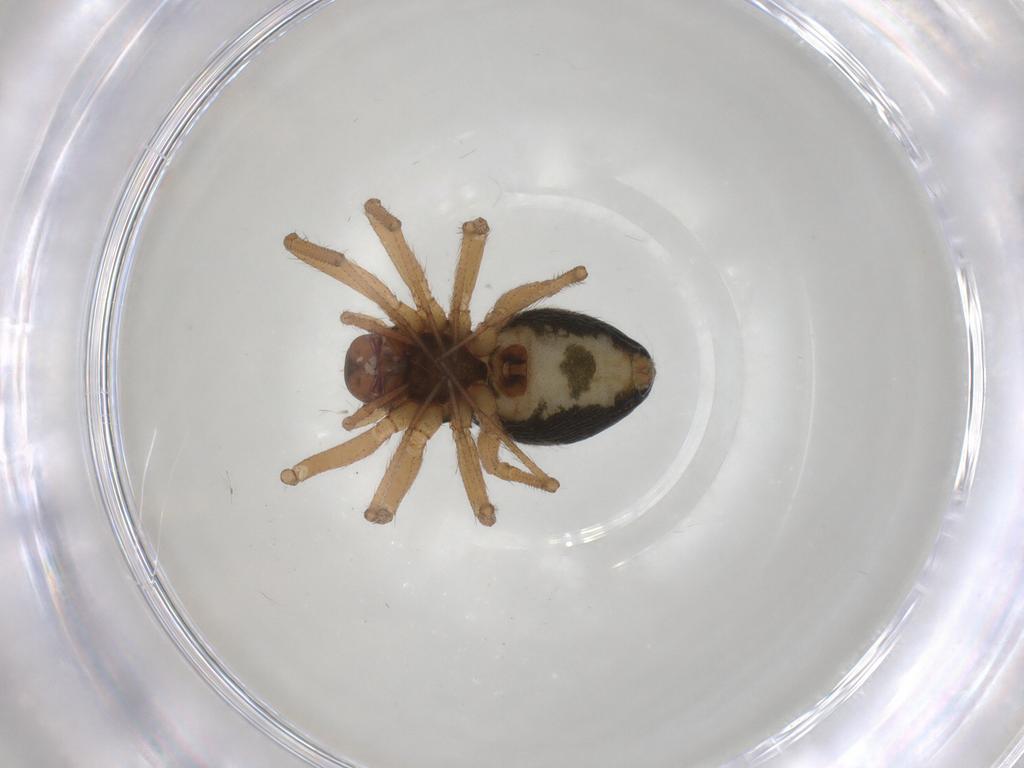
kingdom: Animalia
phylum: Arthropoda
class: Arachnida
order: Araneae
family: Linyphiidae
